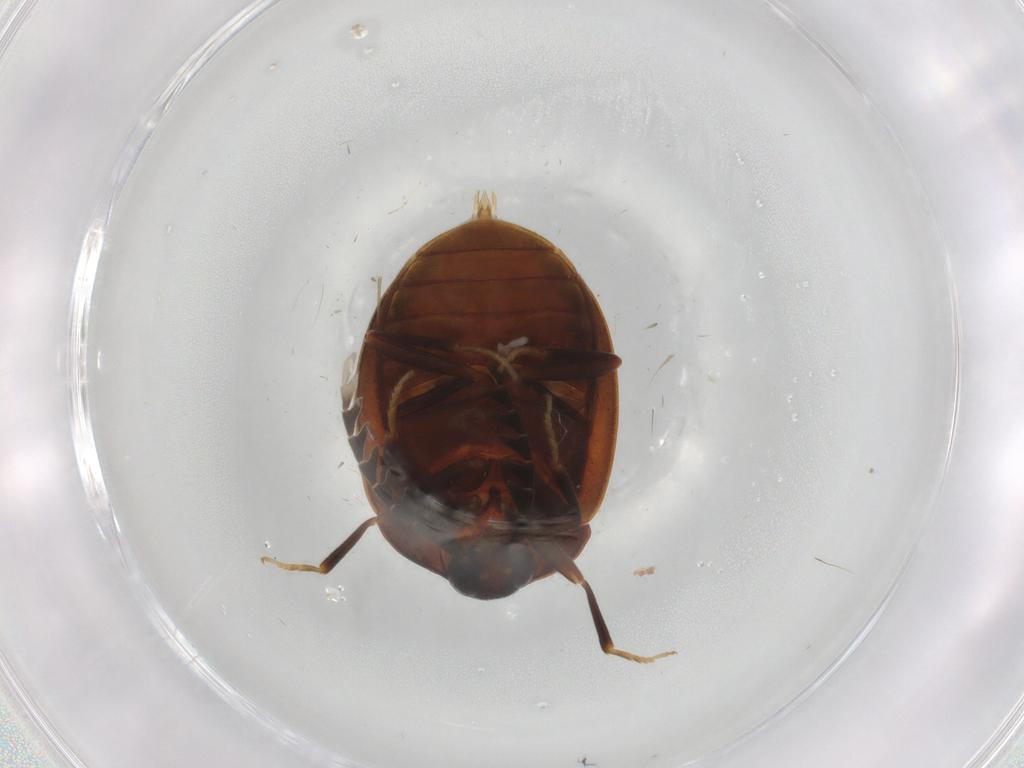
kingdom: Animalia
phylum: Arthropoda
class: Insecta
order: Coleoptera
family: Psephenidae
